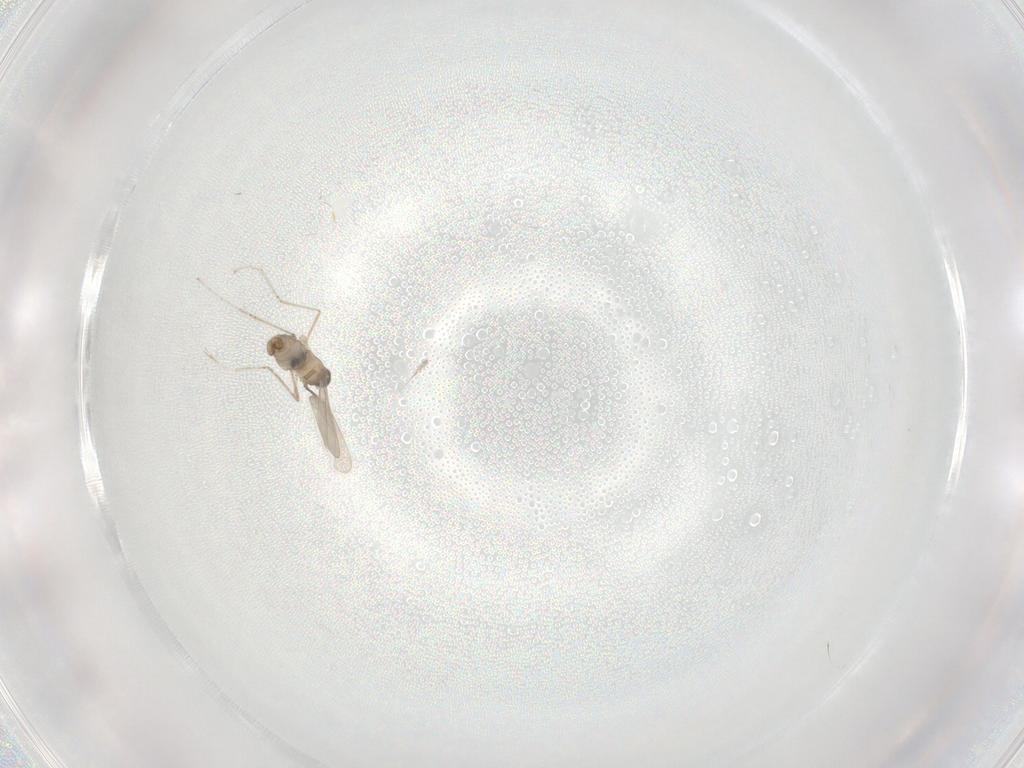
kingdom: Animalia
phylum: Arthropoda
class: Insecta
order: Diptera
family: Cecidomyiidae
